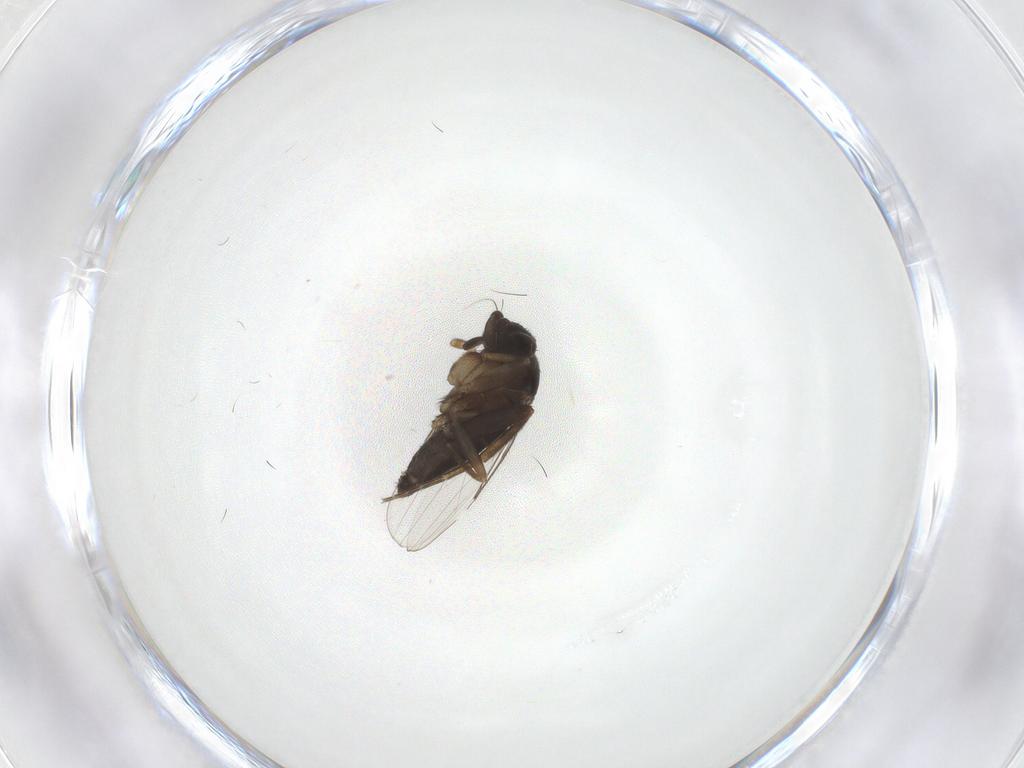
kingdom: Animalia
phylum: Arthropoda
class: Insecta
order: Diptera
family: Phoridae
